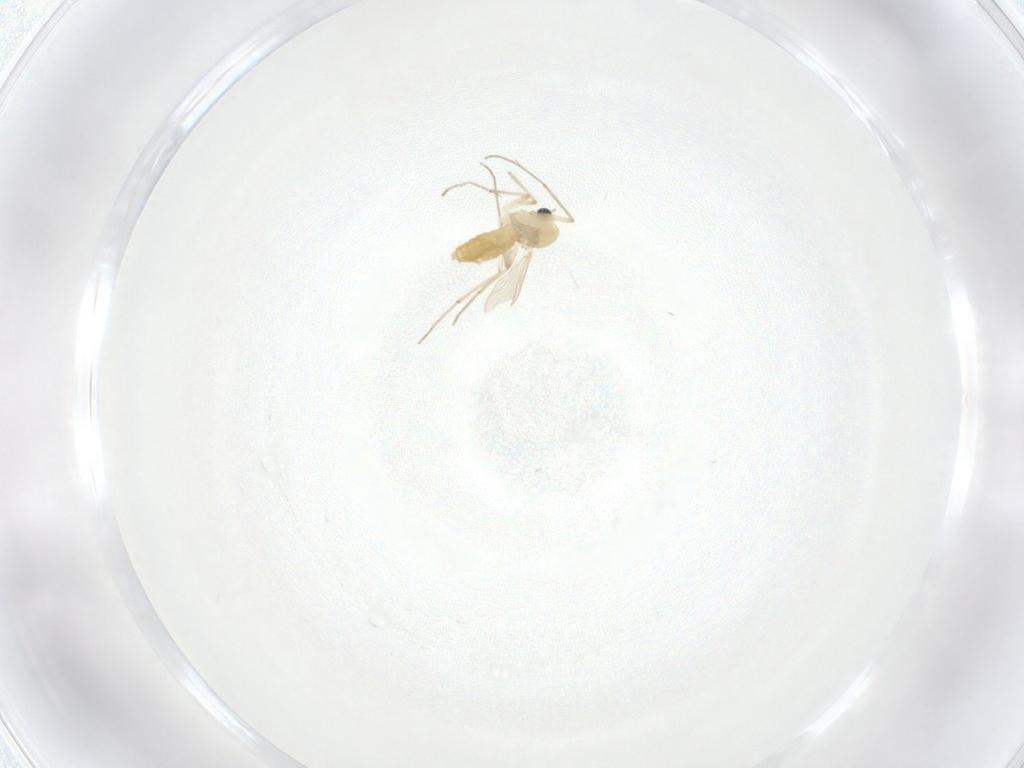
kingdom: Animalia
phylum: Arthropoda
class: Insecta
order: Diptera
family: Chironomidae
